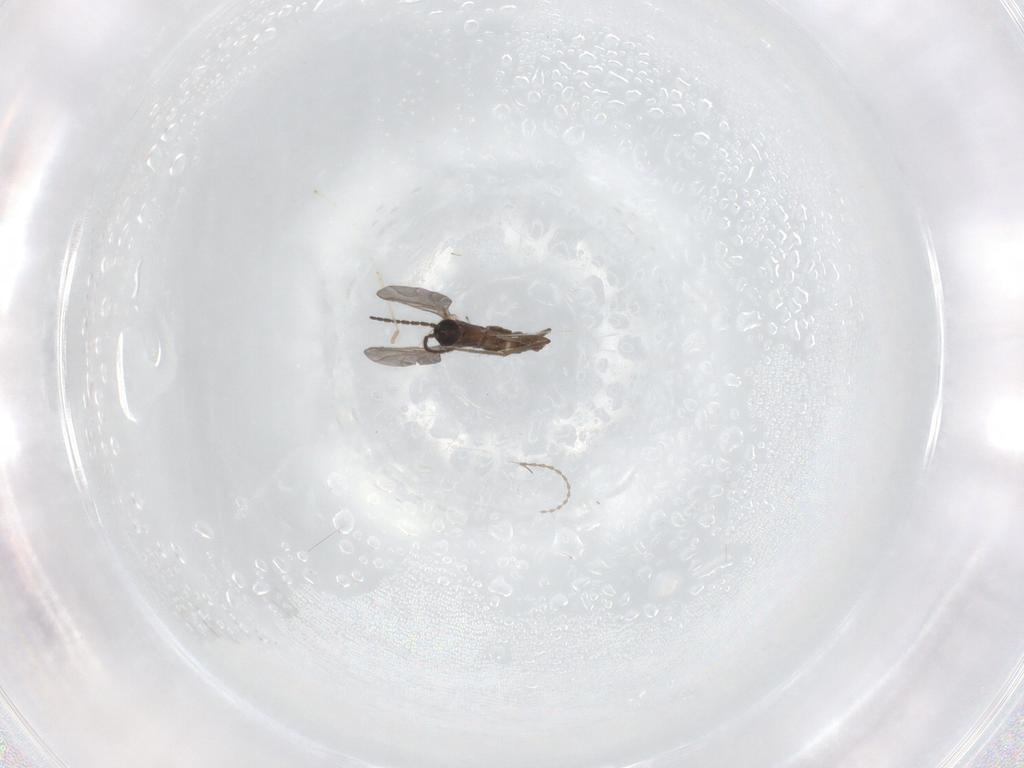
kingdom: Animalia
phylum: Arthropoda
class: Insecta
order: Diptera
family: Sciaridae
